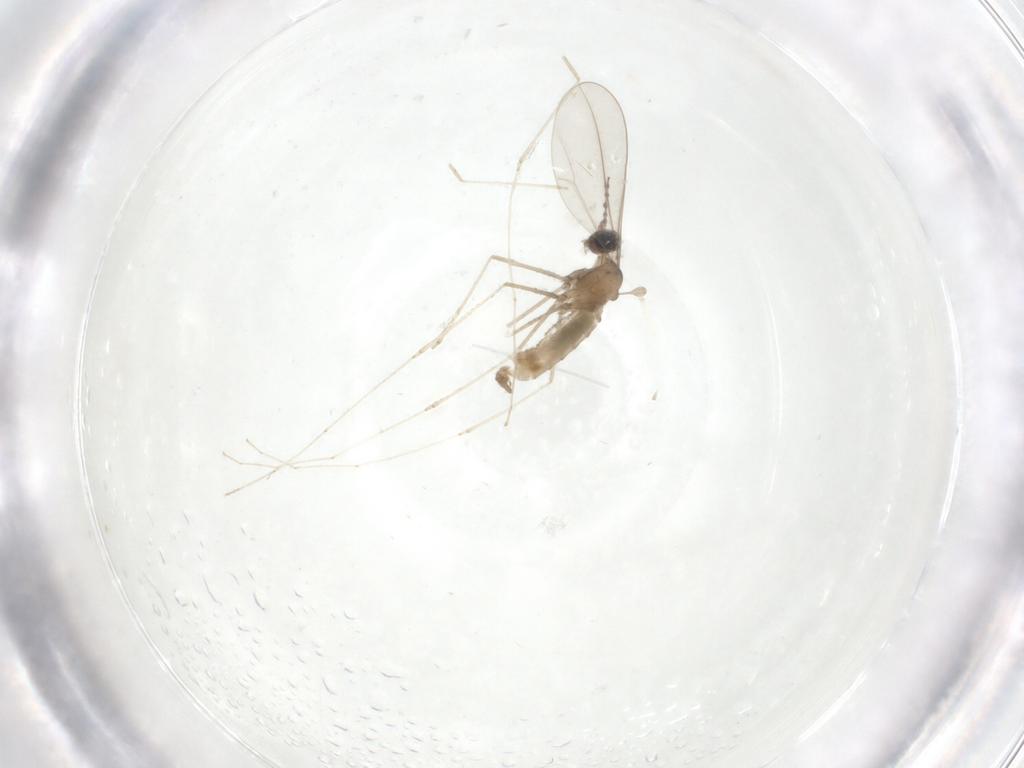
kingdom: Animalia
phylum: Arthropoda
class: Insecta
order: Diptera
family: Cecidomyiidae
